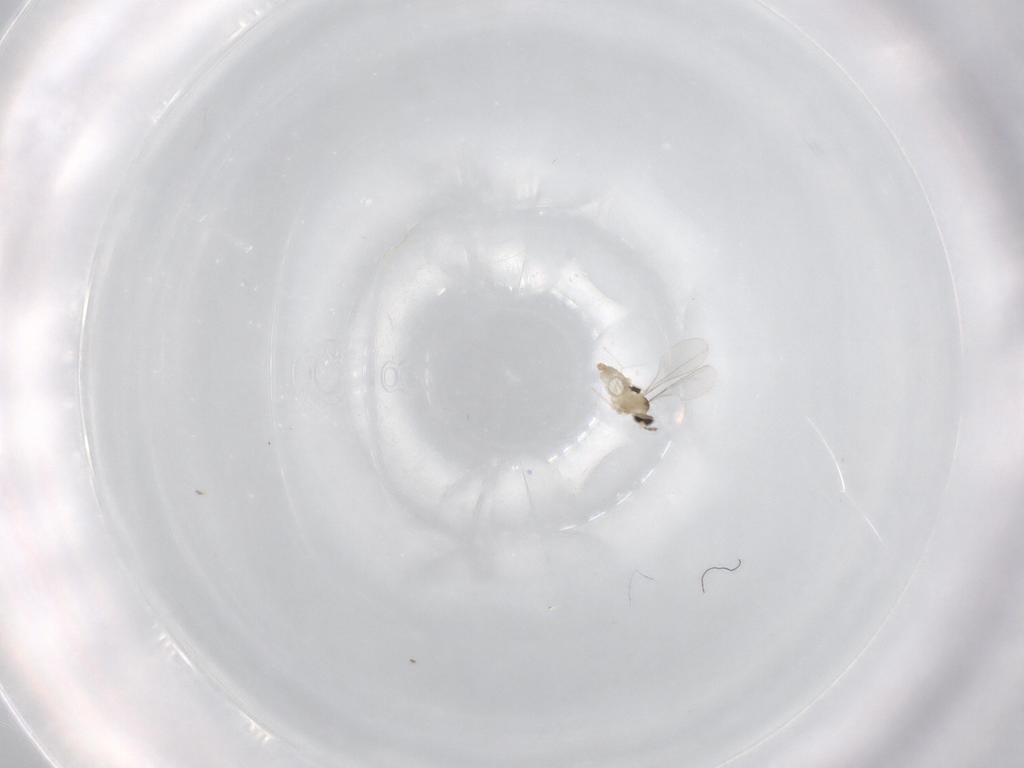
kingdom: Animalia
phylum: Arthropoda
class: Insecta
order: Diptera
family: Cecidomyiidae
